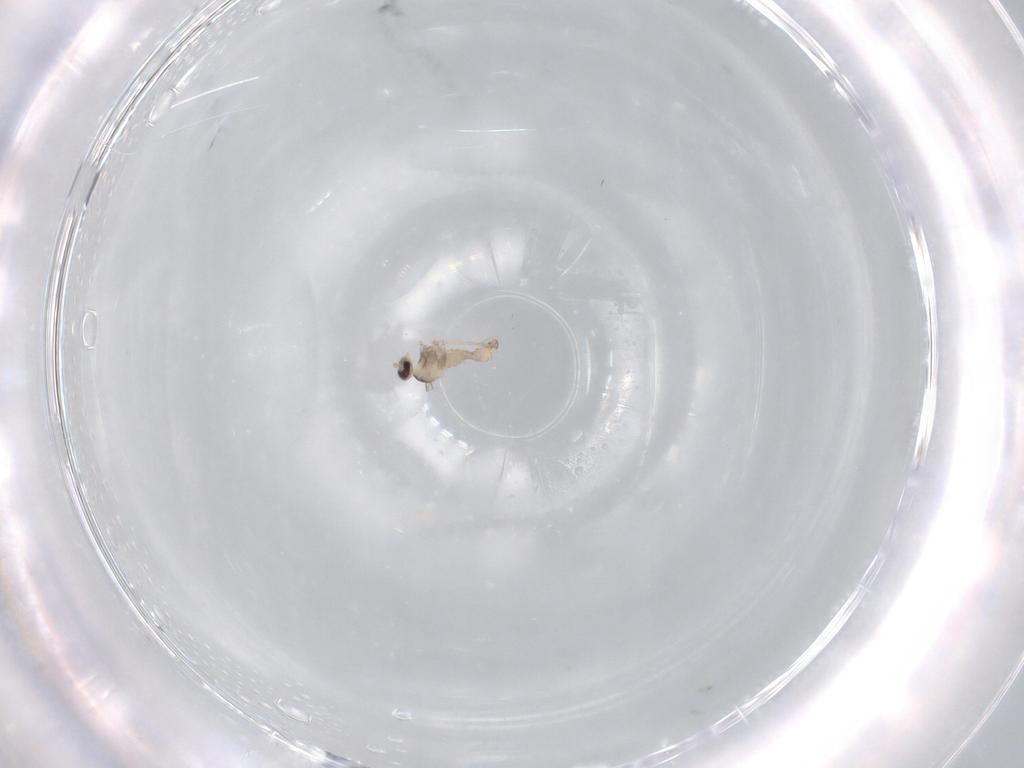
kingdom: Animalia
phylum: Arthropoda
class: Insecta
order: Diptera
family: Cecidomyiidae
